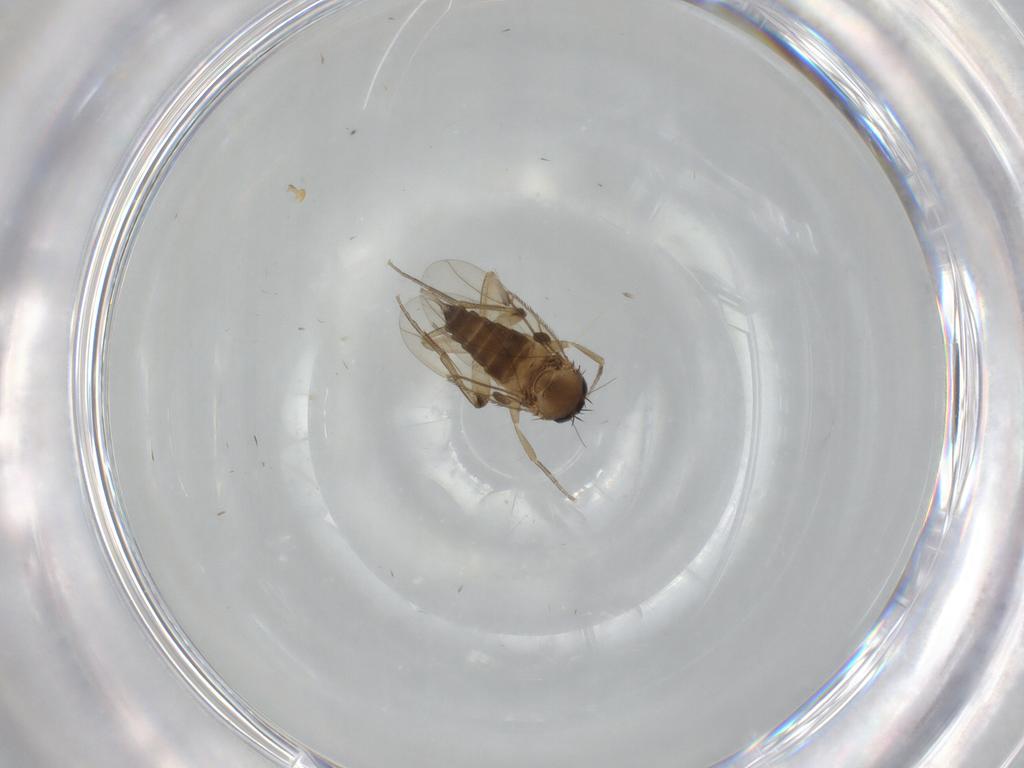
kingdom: Animalia
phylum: Arthropoda
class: Insecta
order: Diptera
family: Phoridae
